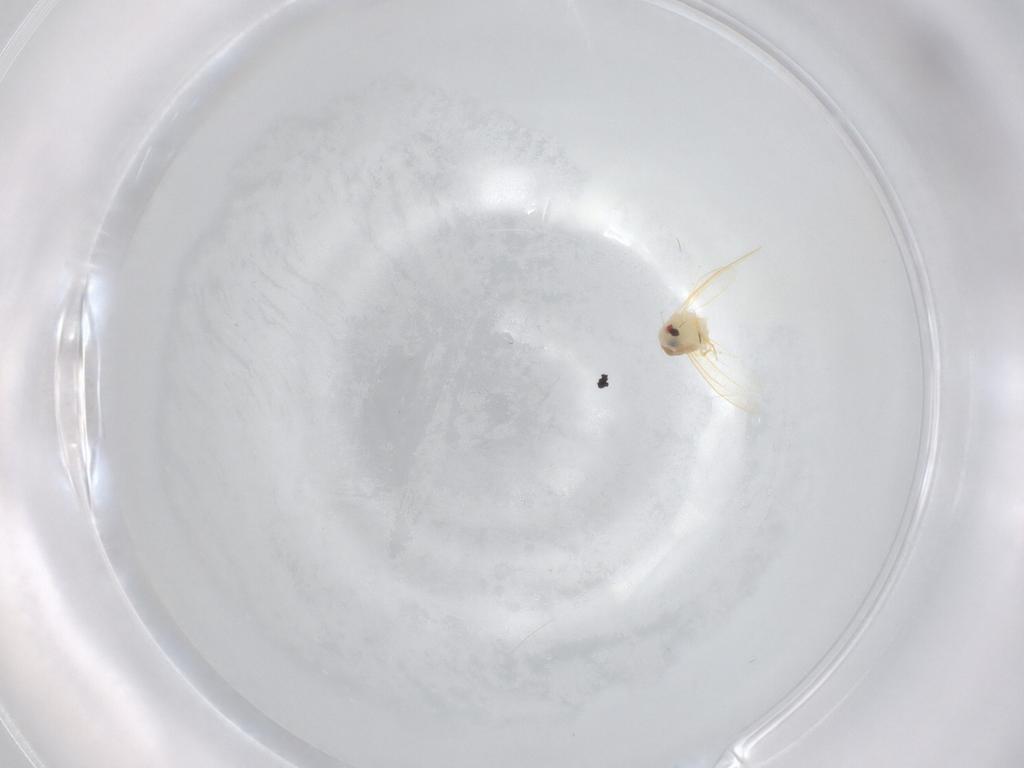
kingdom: Animalia
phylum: Arthropoda
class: Insecta
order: Hemiptera
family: Aleyrodidae
